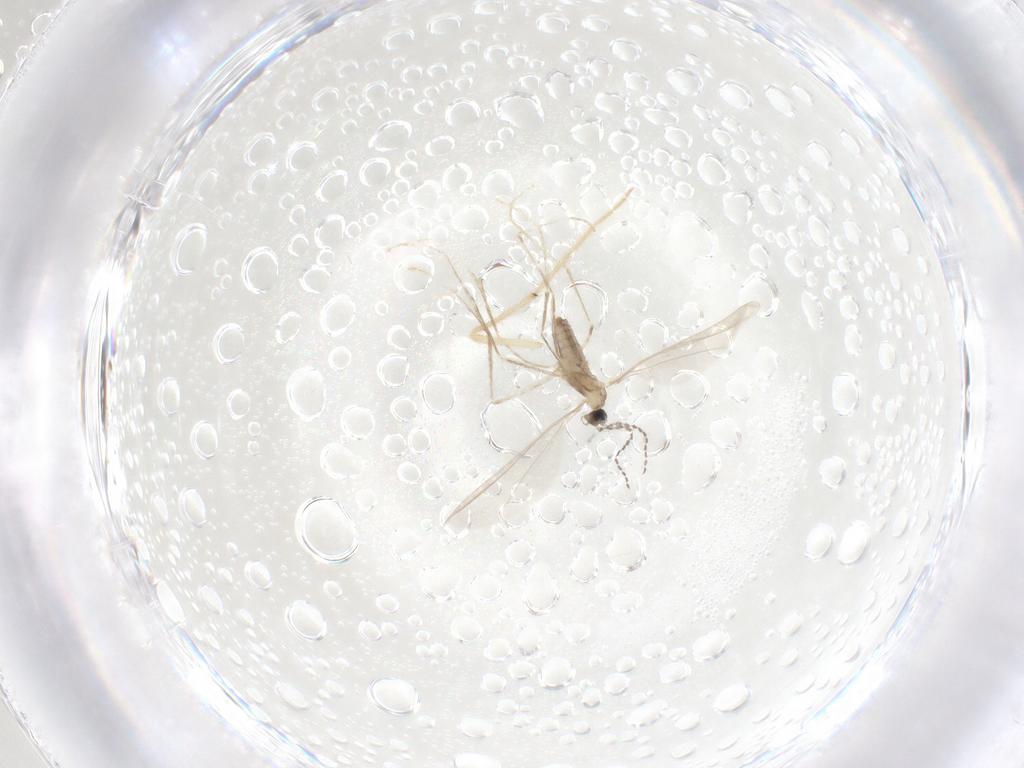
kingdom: Animalia
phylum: Arthropoda
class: Insecta
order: Diptera
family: Cecidomyiidae
